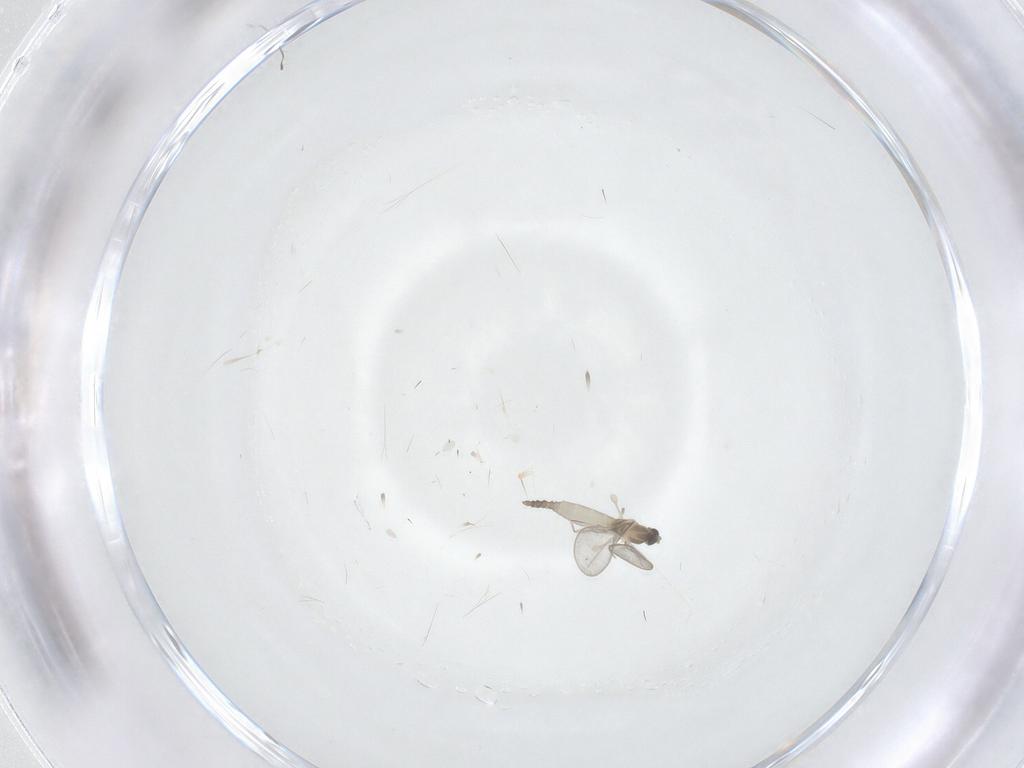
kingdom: Animalia
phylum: Arthropoda
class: Insecta
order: Diptera
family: Cecidomyiidae
